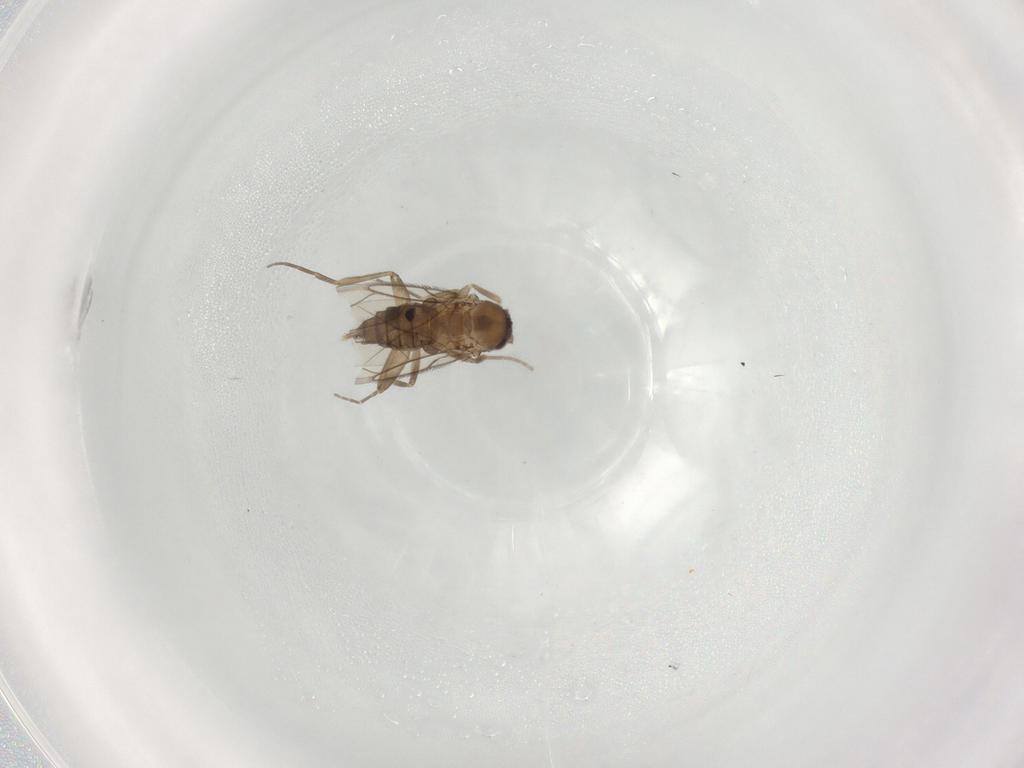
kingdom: Animalia
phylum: Arthropoda
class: Insecta
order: Diptera
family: Phoridae
